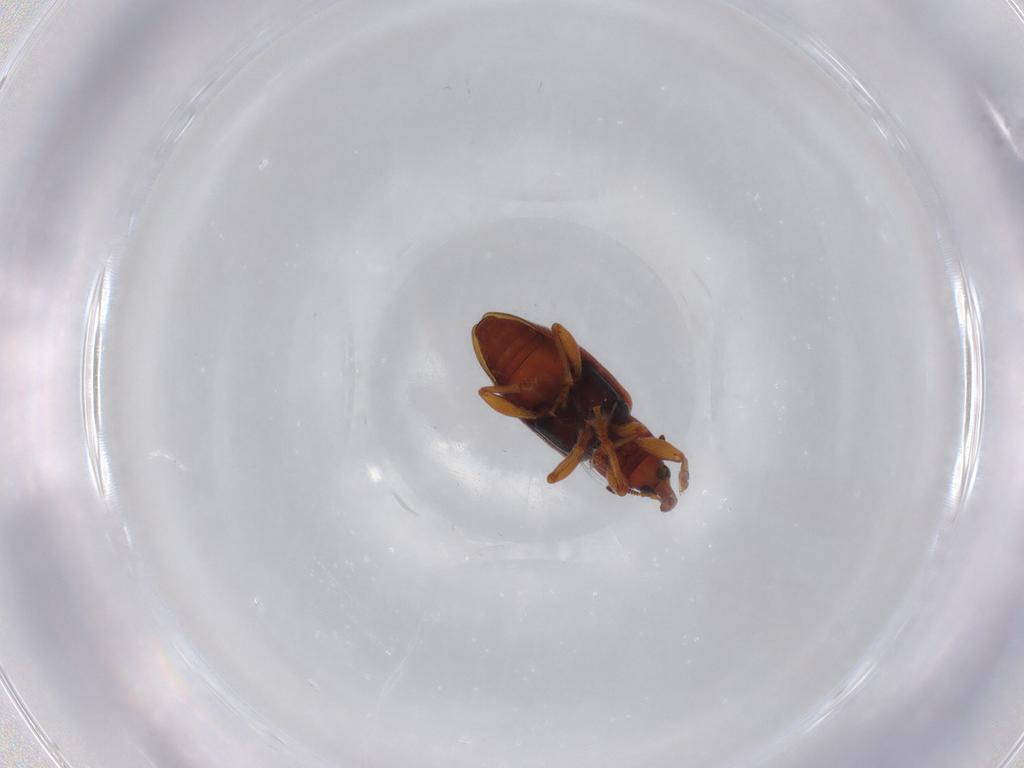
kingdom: Animalia
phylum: Arthropoda
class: Insecta
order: Coleoptera
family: Curculionidae
